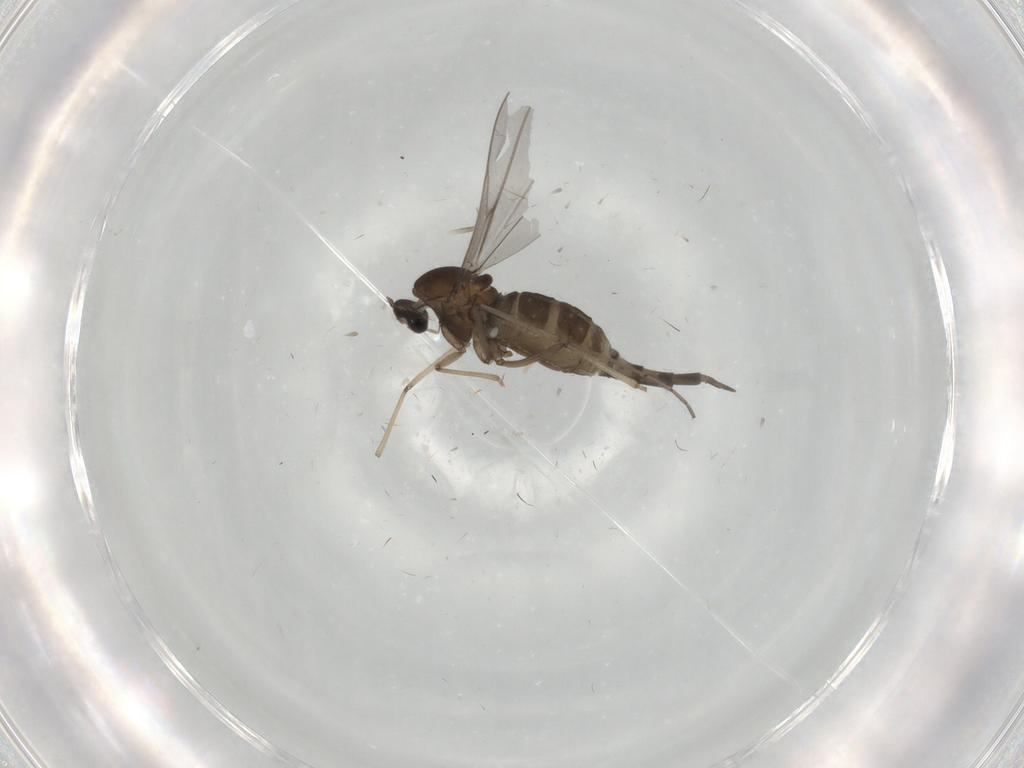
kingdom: Animalia
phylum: Arthropoda
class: Insecta
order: Diptera
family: Cecidomyiidae
